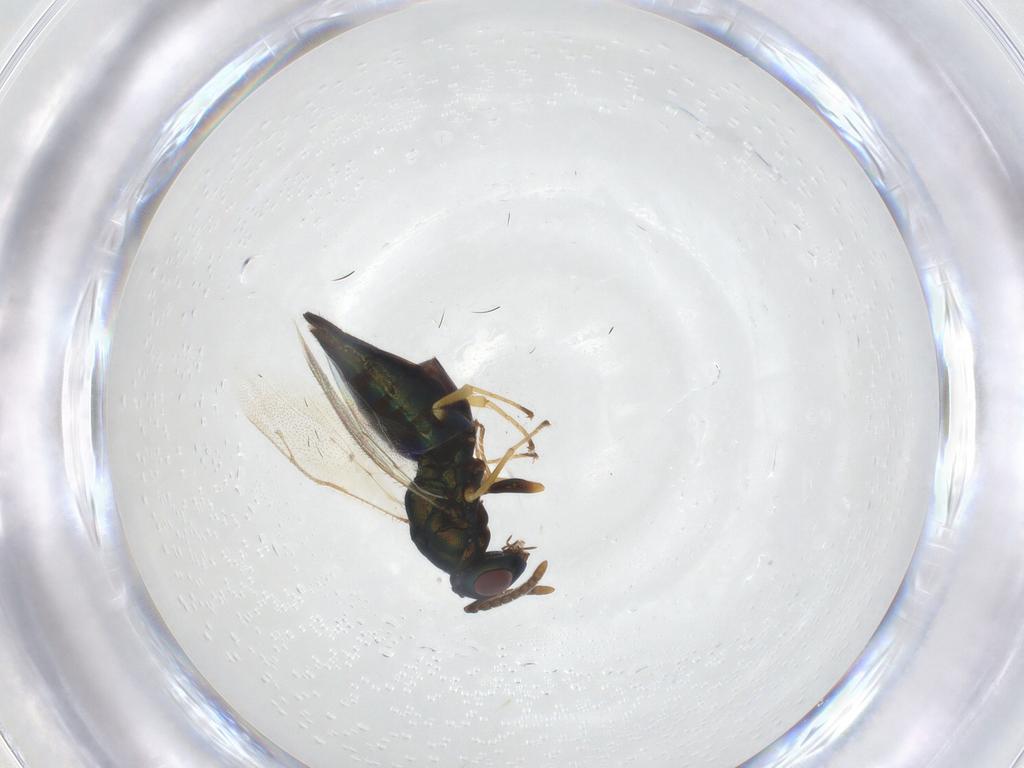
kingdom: Animalia
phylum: Arthropoda
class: Insecta
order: Hymenoptera
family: Pteromalidae
